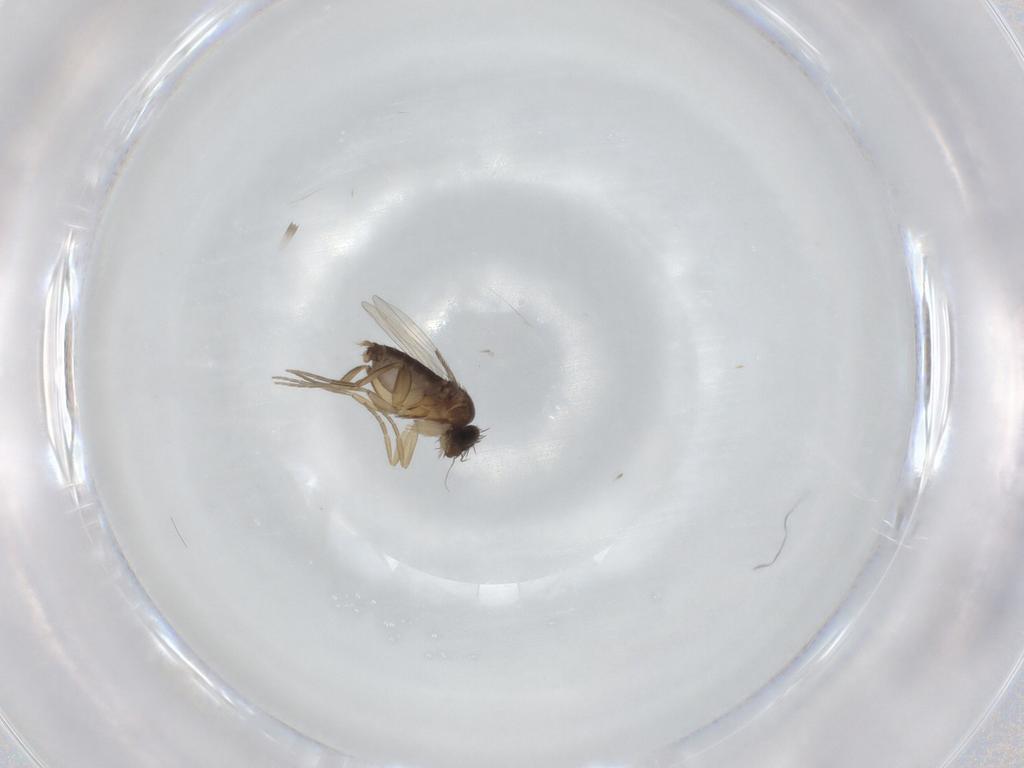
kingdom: Animalia
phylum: Arthropoda
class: Insecta
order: Diptera
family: Phoridae
